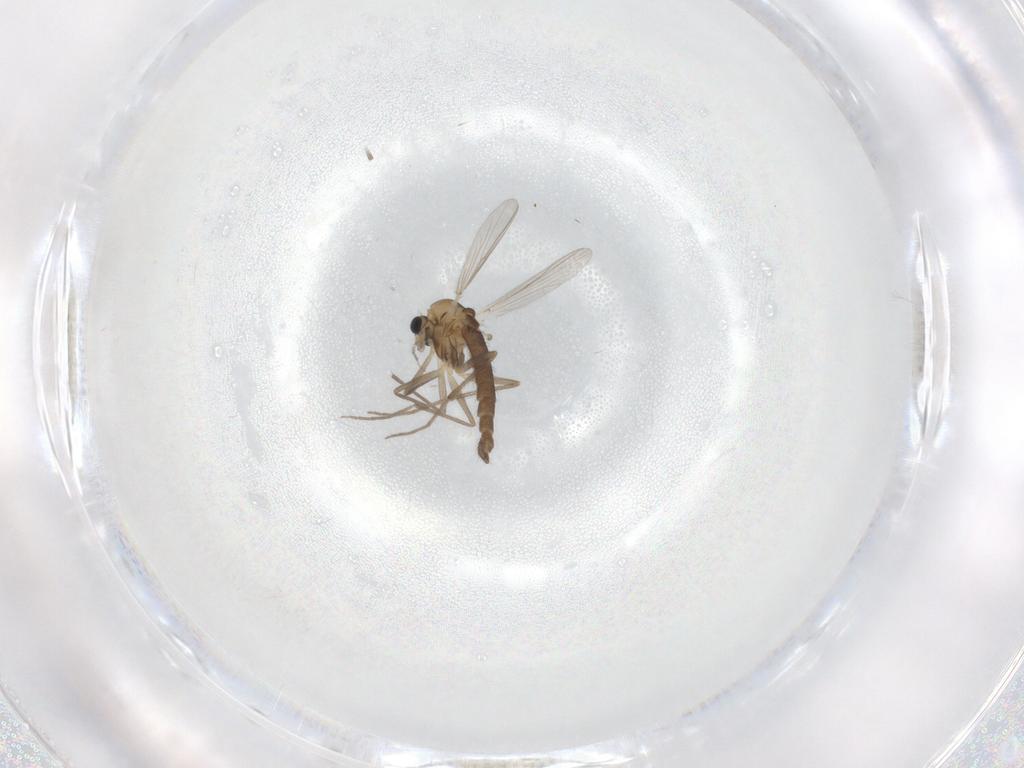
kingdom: Animalia
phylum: Arthropoda
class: Insecta
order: Diptera
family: Chironomidae
